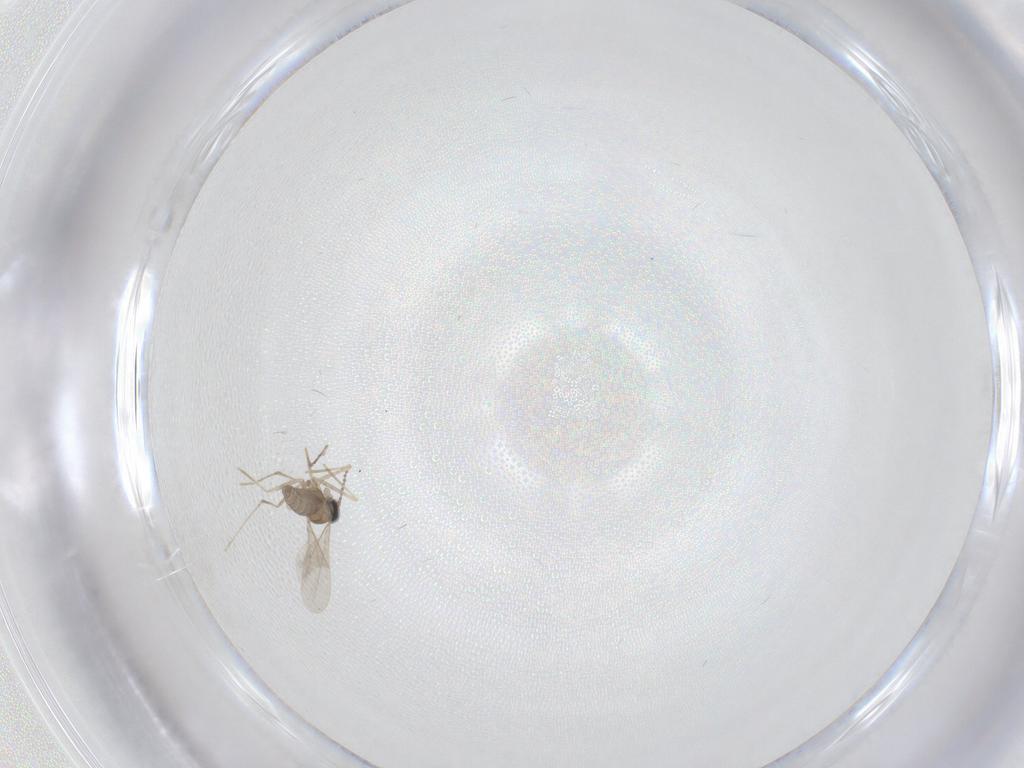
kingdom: Animalia
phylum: Arthropoda
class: Insecta
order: Diptera
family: Cecidomyiidae
